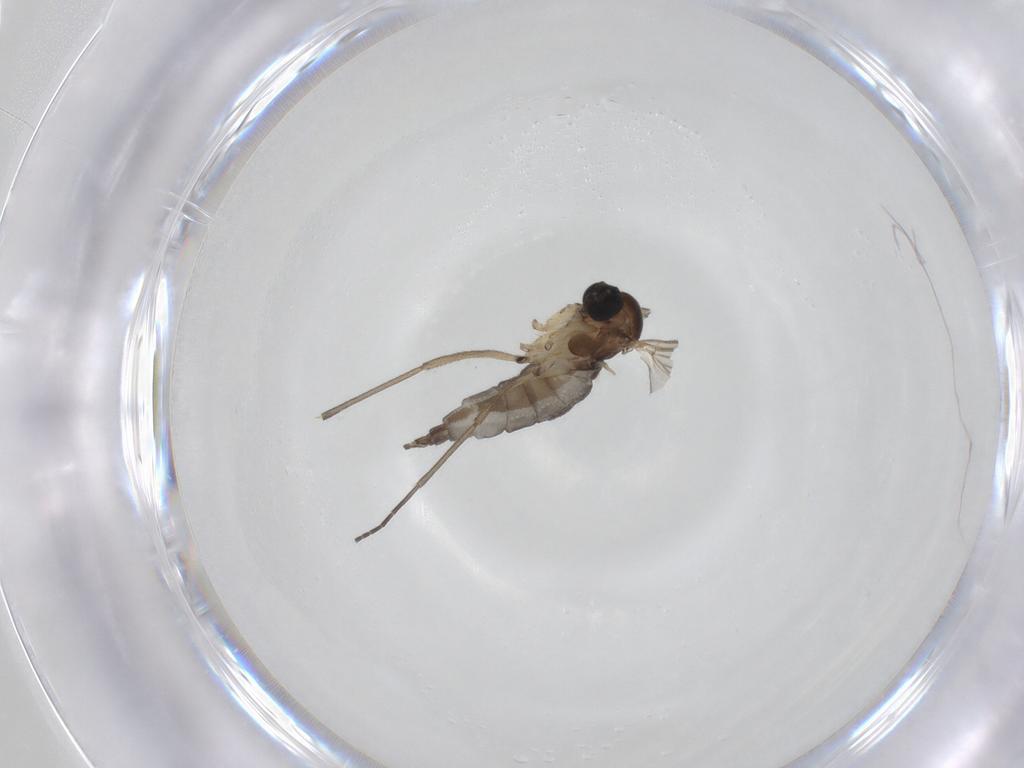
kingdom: Animalia
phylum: Arthropoda
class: Insecta
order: Diptera
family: Sciaridae
